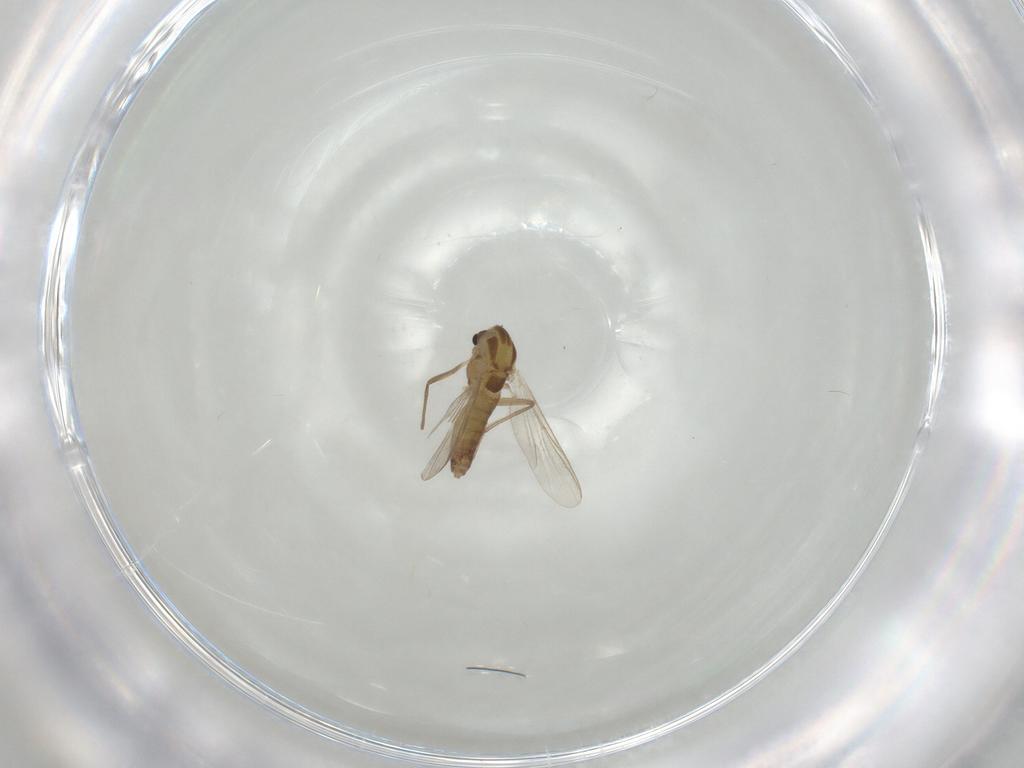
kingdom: Animalia
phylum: Arthropoda
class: Insecta
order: Diptera
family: Chironomidae
